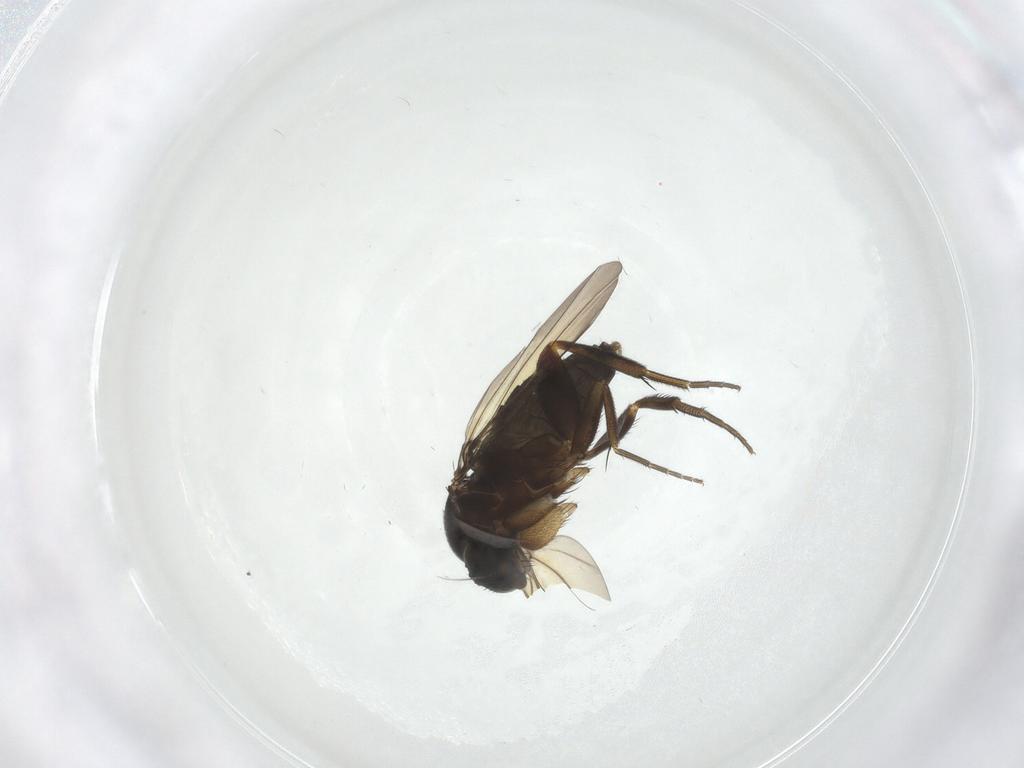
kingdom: Animalia
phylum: Arthropoda
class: Insecta
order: Diptera
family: Phoridae
